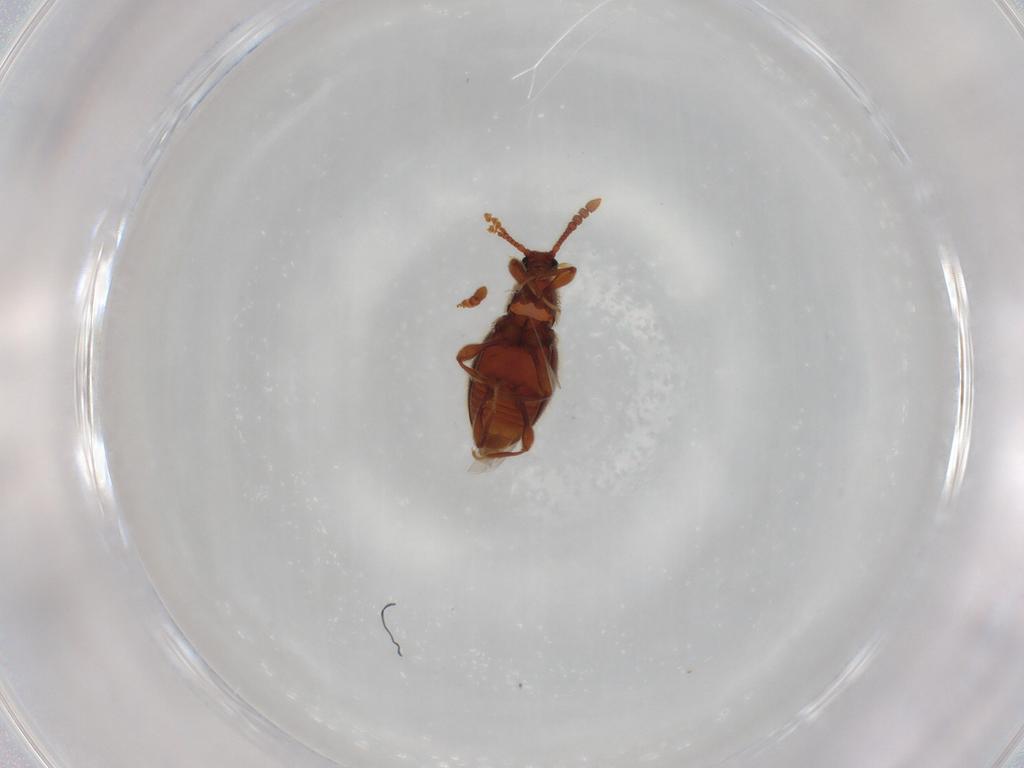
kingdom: Animalia
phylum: Arthropoda
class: Insecta
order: Coleoptera
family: Staphylinidae
